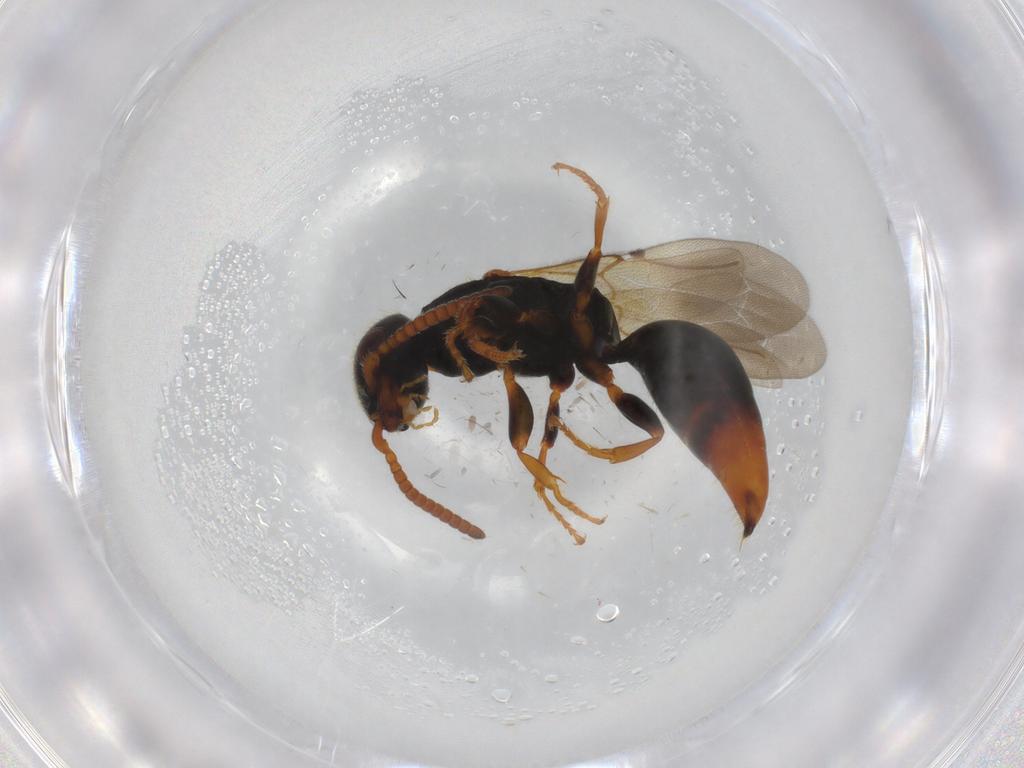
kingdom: Animalia
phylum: Arthropoda
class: Insecta
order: Hymenoptera
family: Bethylidae
